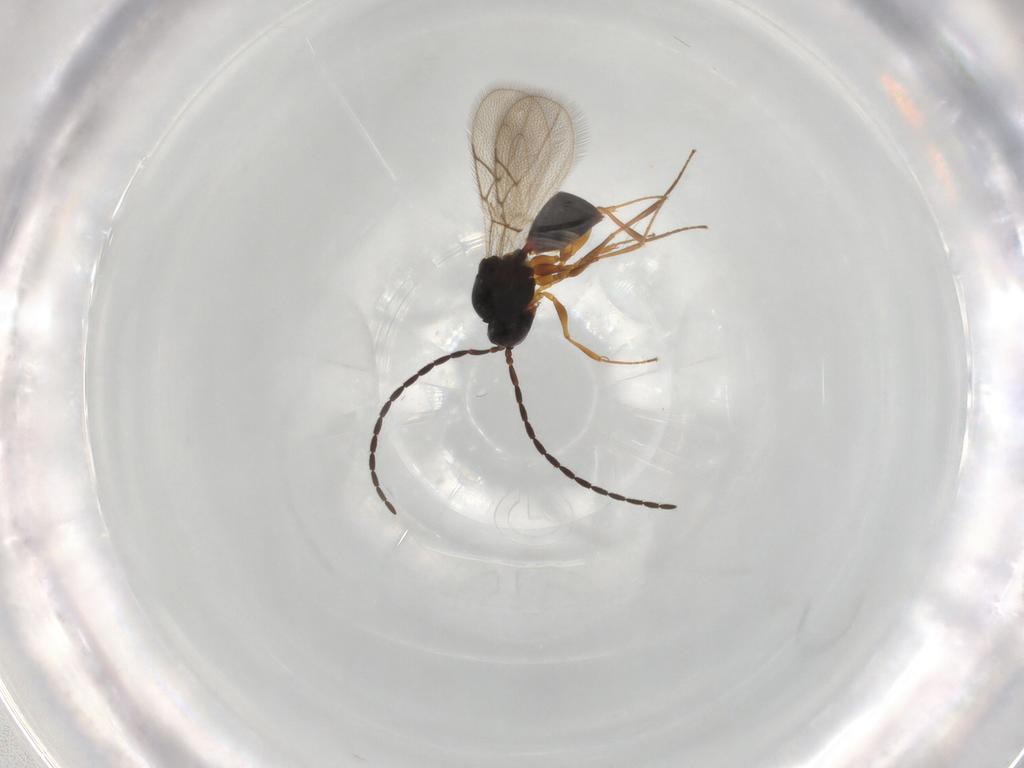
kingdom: Animalia
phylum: Arthropoda
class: Insecta
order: Hymenoptera
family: Figitidae
